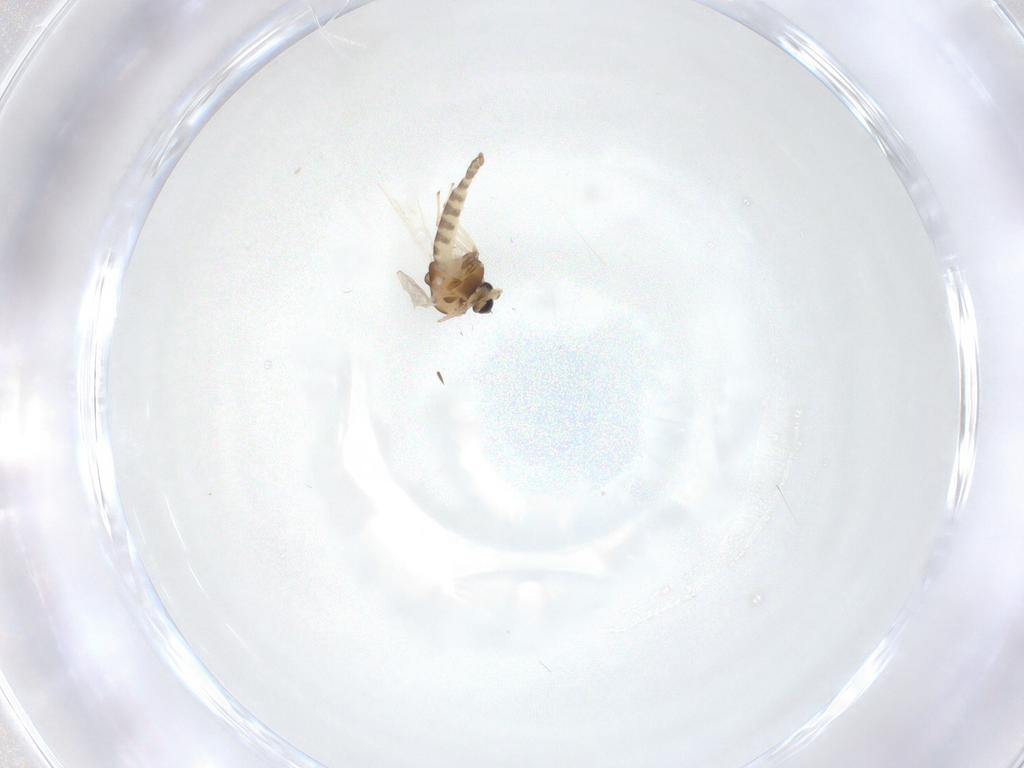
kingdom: Animalia
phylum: Arthropoda
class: Insecta
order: Diptera
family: Chironomidae
